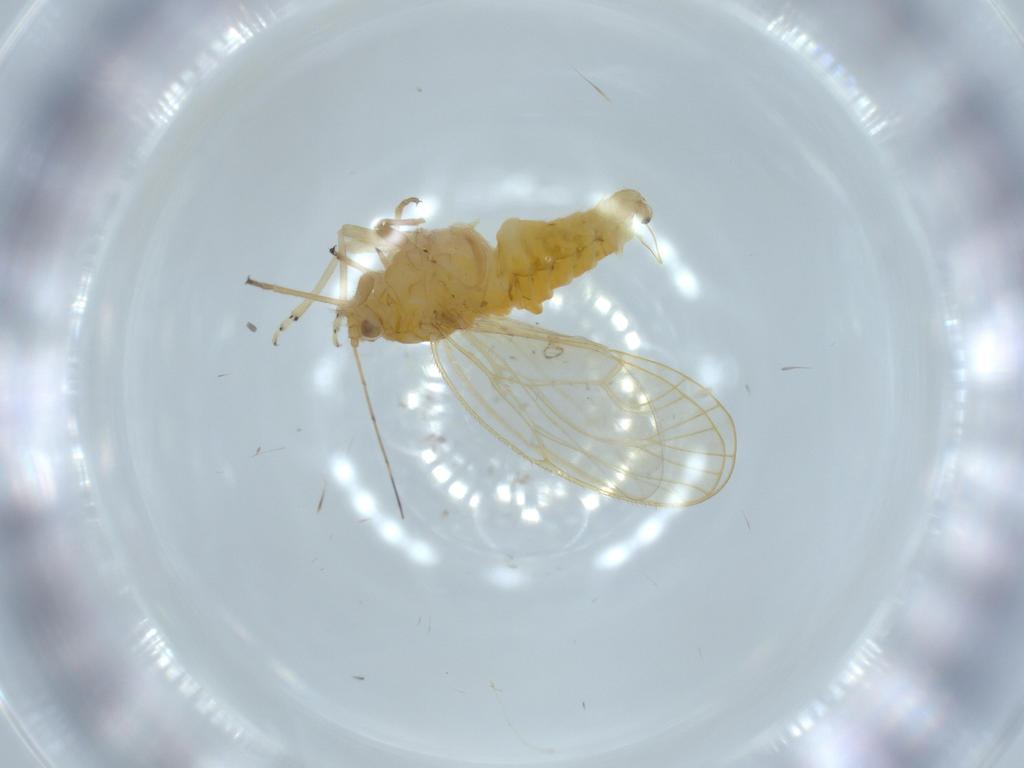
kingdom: Animalia
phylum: Arthropoda
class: Insecta
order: Hemiptera
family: Psyllidae
